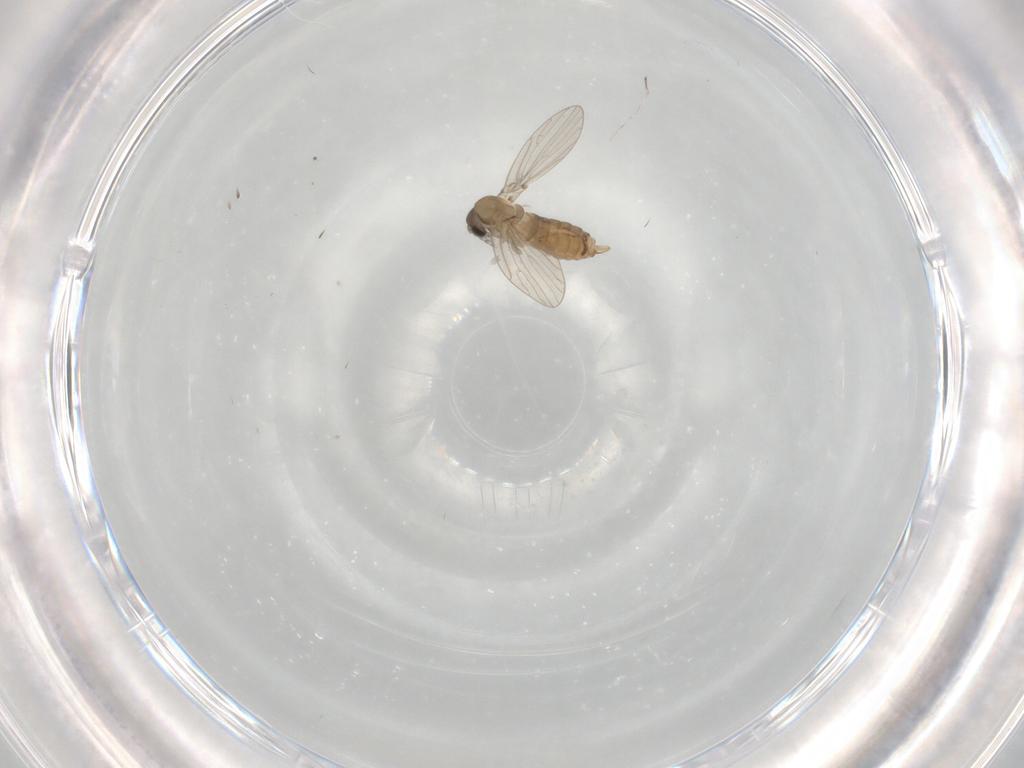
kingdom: Animalia
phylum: Arthropoda
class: Insecta
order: Diptera
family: Psychodidae
